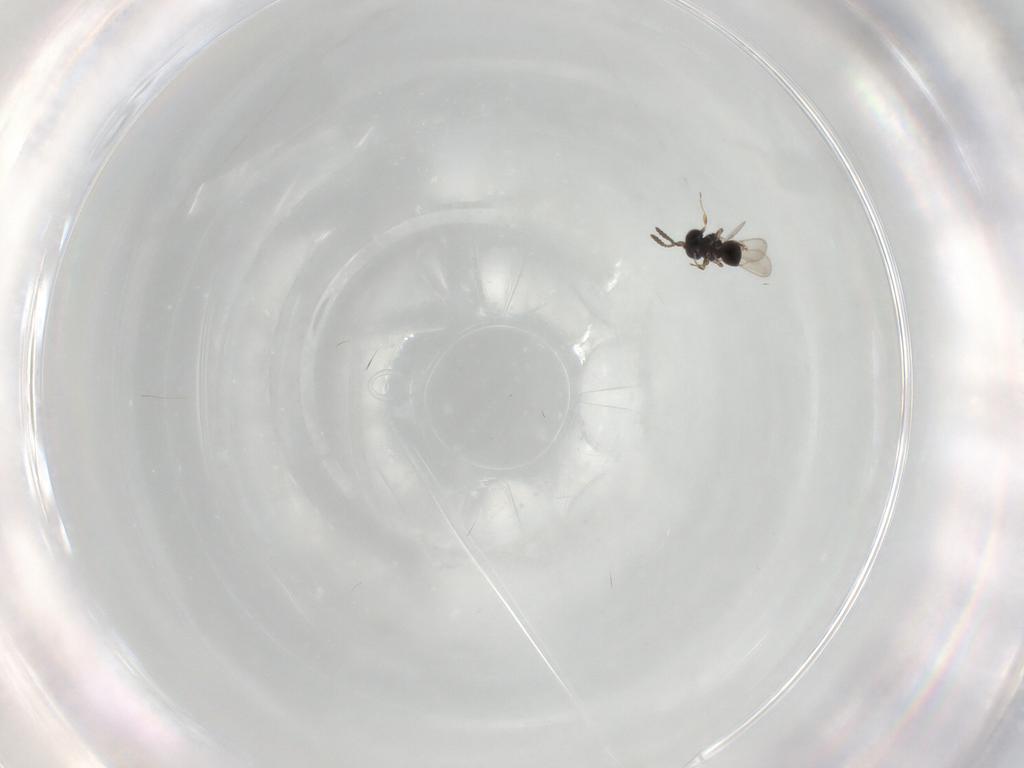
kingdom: Animalia
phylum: Arthropoda
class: Insecta
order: Hymenoptera
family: Scelionidae
